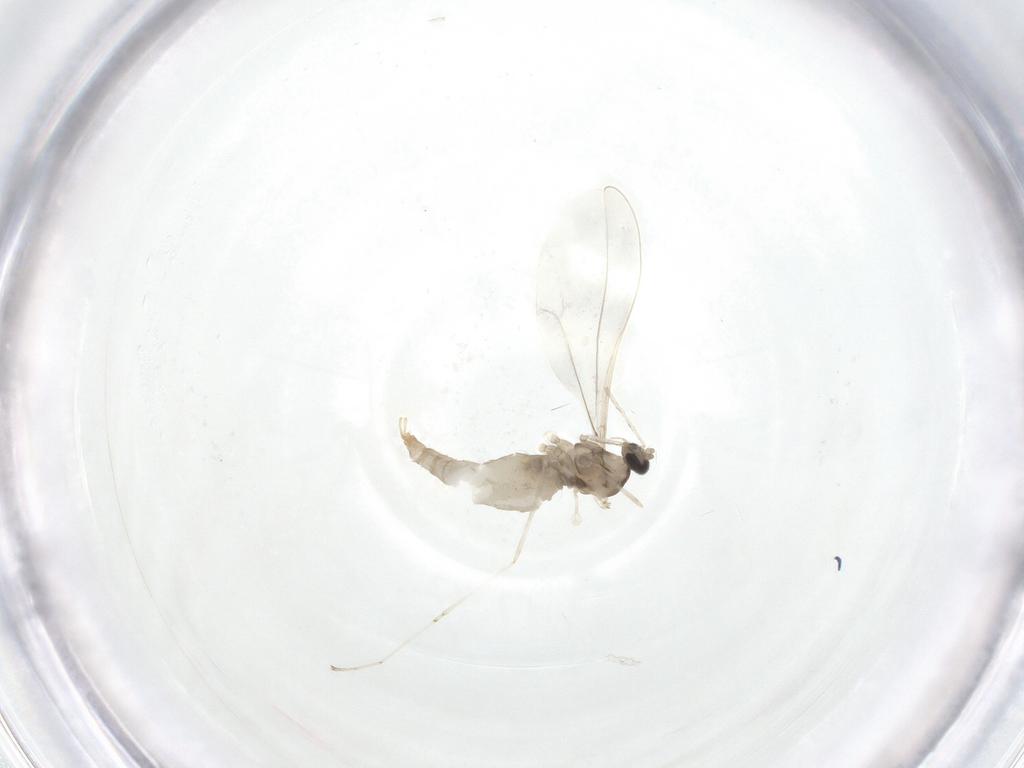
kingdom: Animalia
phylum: Arthropoda
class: Insecta
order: Diptera
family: Cecidomyiidae
